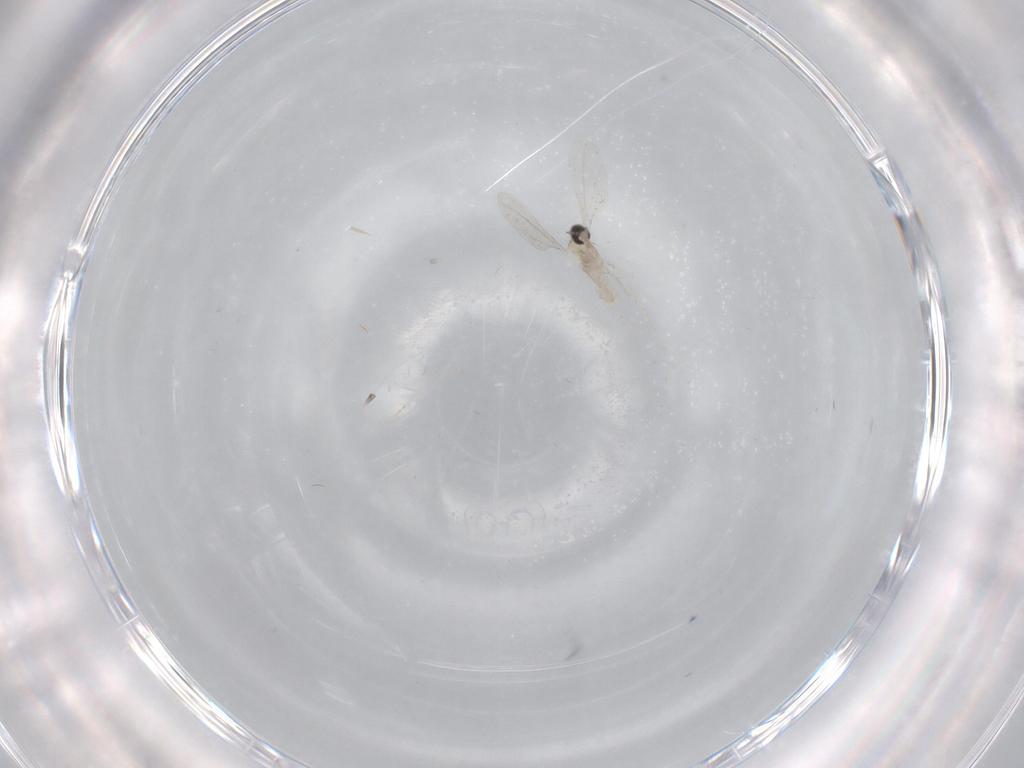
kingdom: Animalia
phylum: Arthropoda
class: Insecta
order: Diptera
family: Cecidomyiidae
